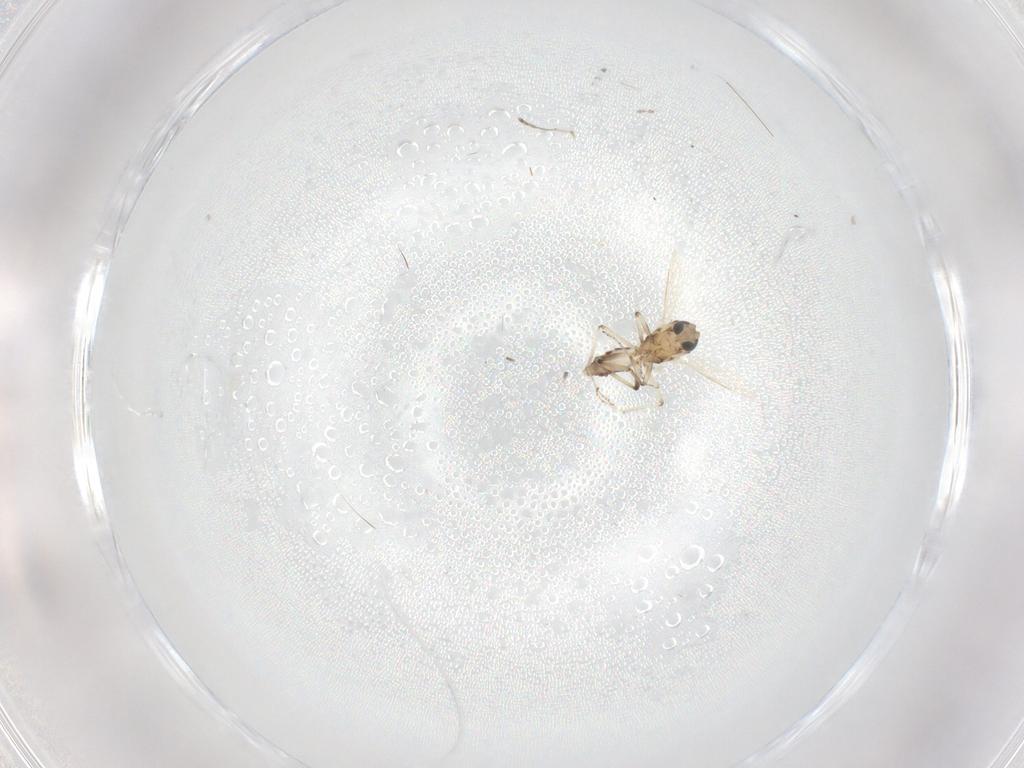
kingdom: Animalia
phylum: Arthropoda
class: Insecta
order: Diptera
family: Cecidomyiidae
